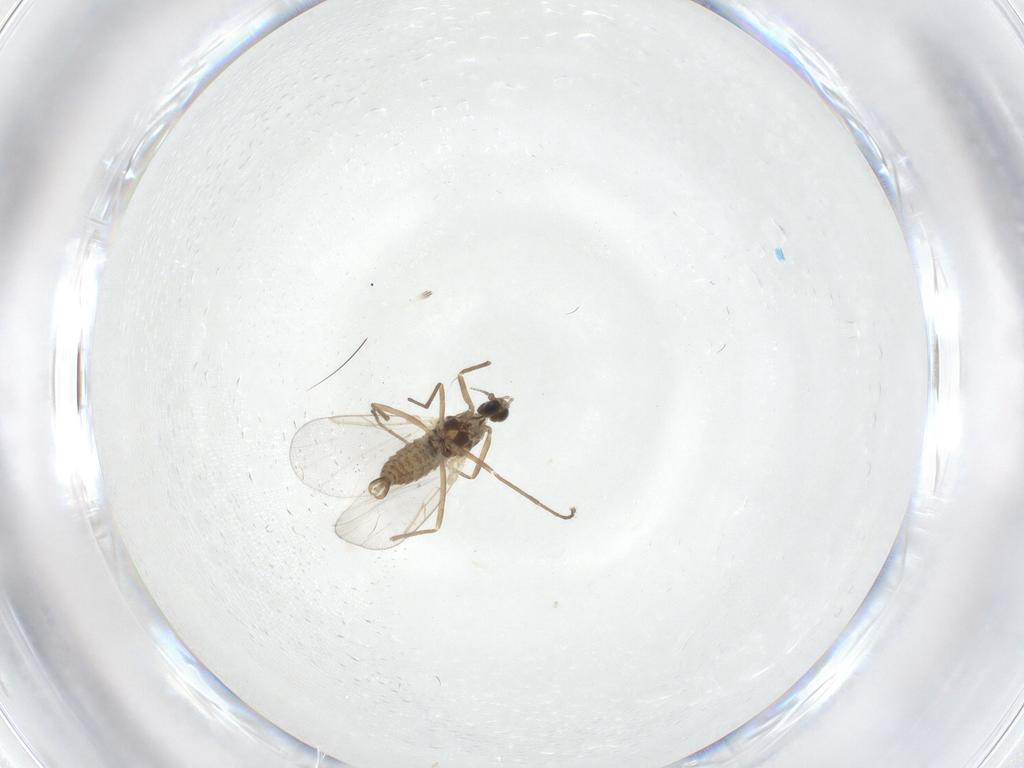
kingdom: Animalia
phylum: Arthropoda
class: Insecta
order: Diptera
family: Cecidomyiidae
